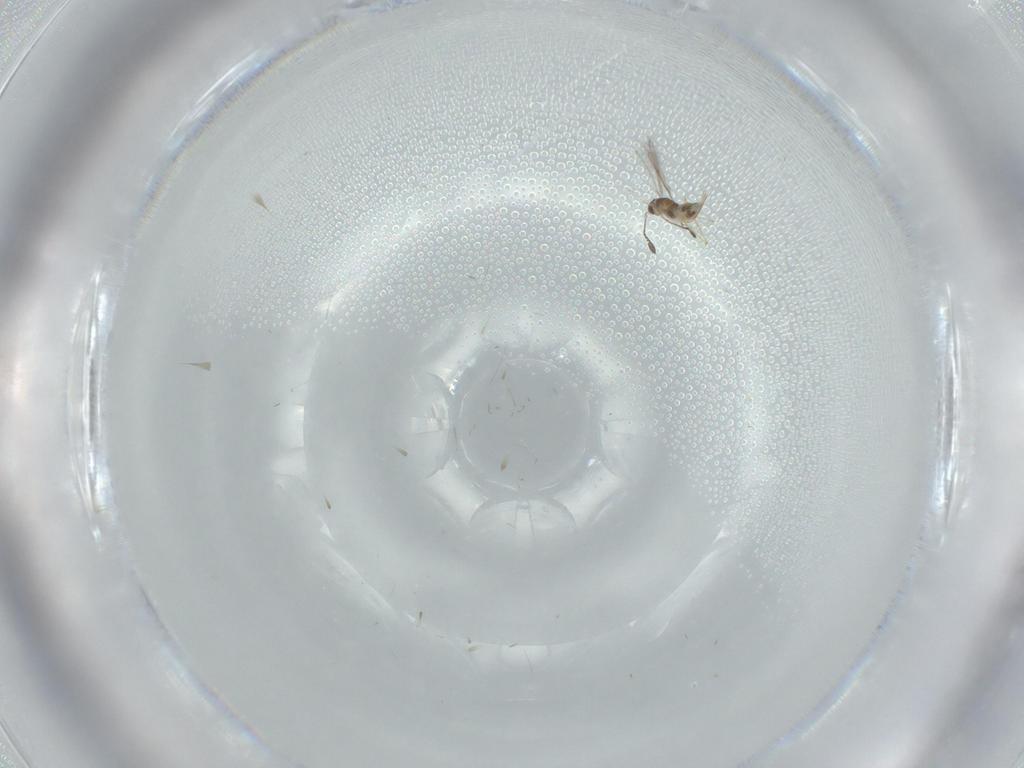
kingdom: Animalia
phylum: Arthropoda
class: Insecta
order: Hymenoptera
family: Mymaridae
